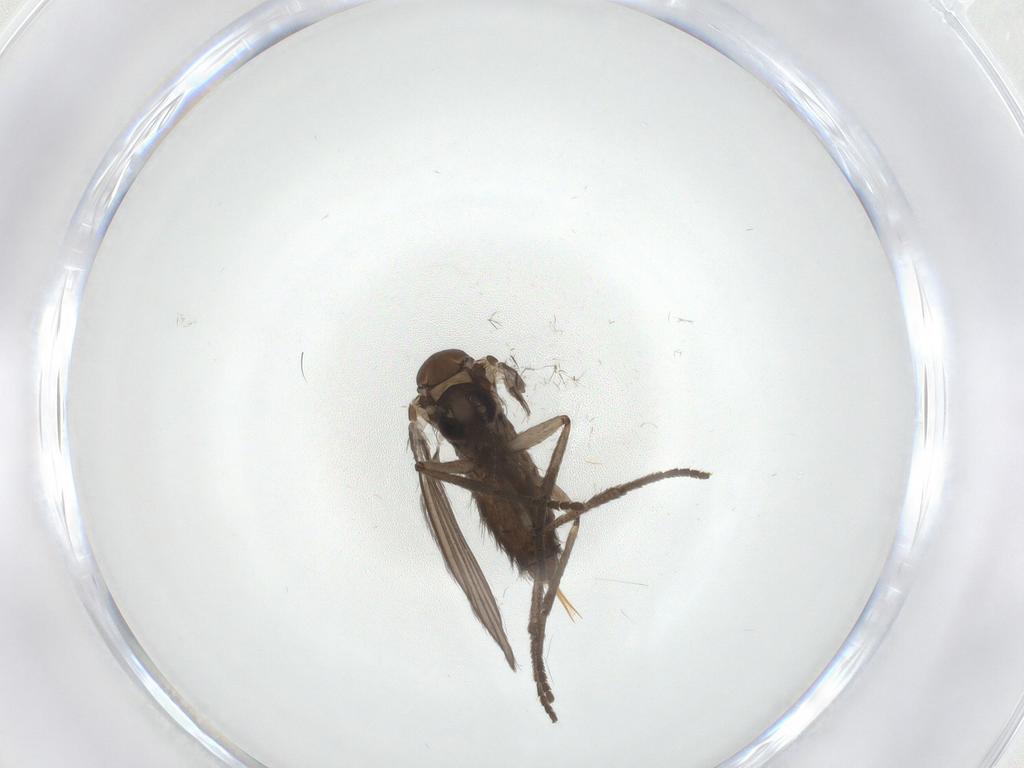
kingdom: Animalia
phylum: Arthropoda
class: Insecta
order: Diptera
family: Psychodidae
